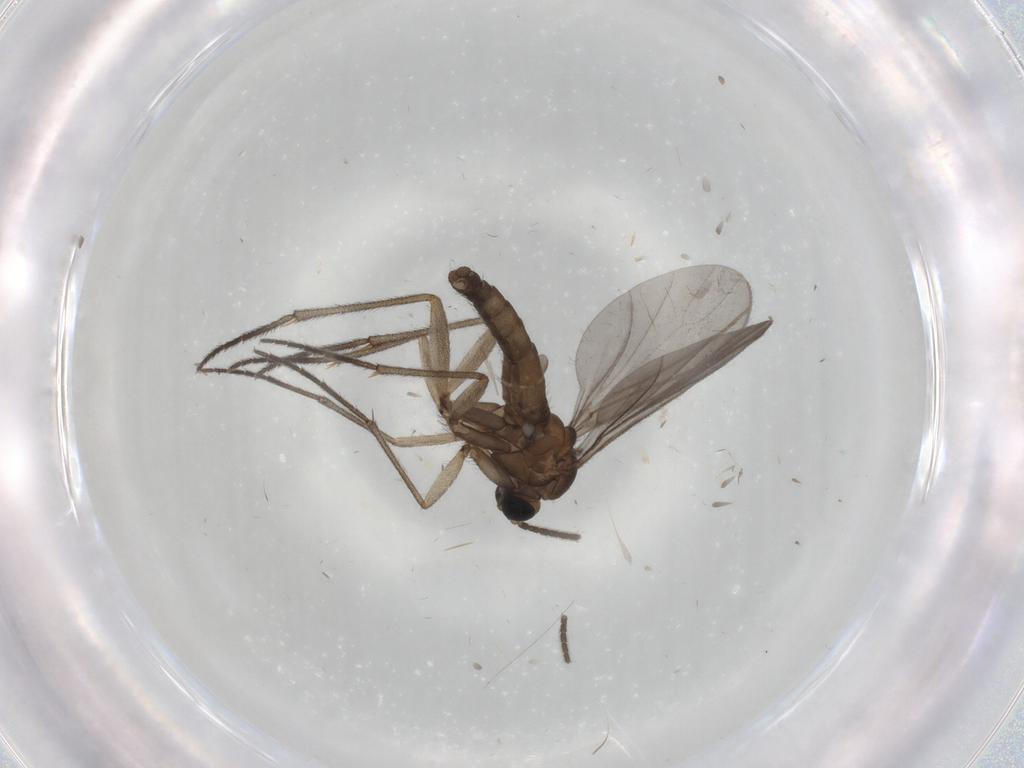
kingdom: Animalia
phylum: Arthropoda
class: Insecta
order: Diptera
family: Sciaridae
